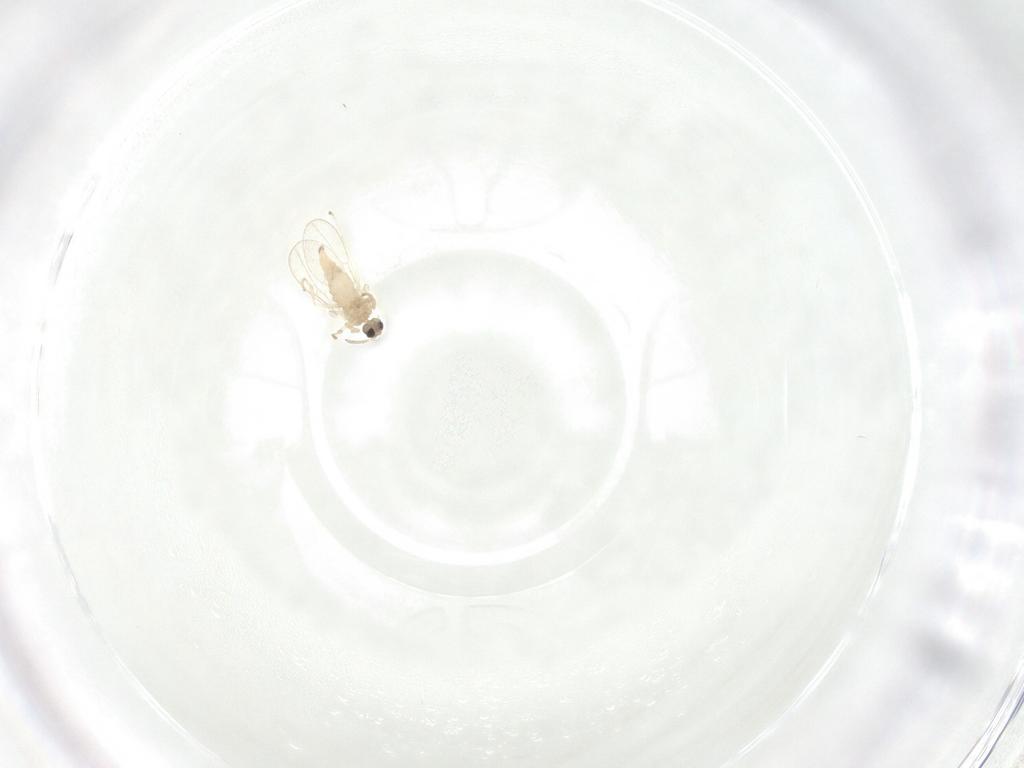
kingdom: Animalia
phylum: Arthropoda
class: Insecta
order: Diptera
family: Cecidomyiidae
